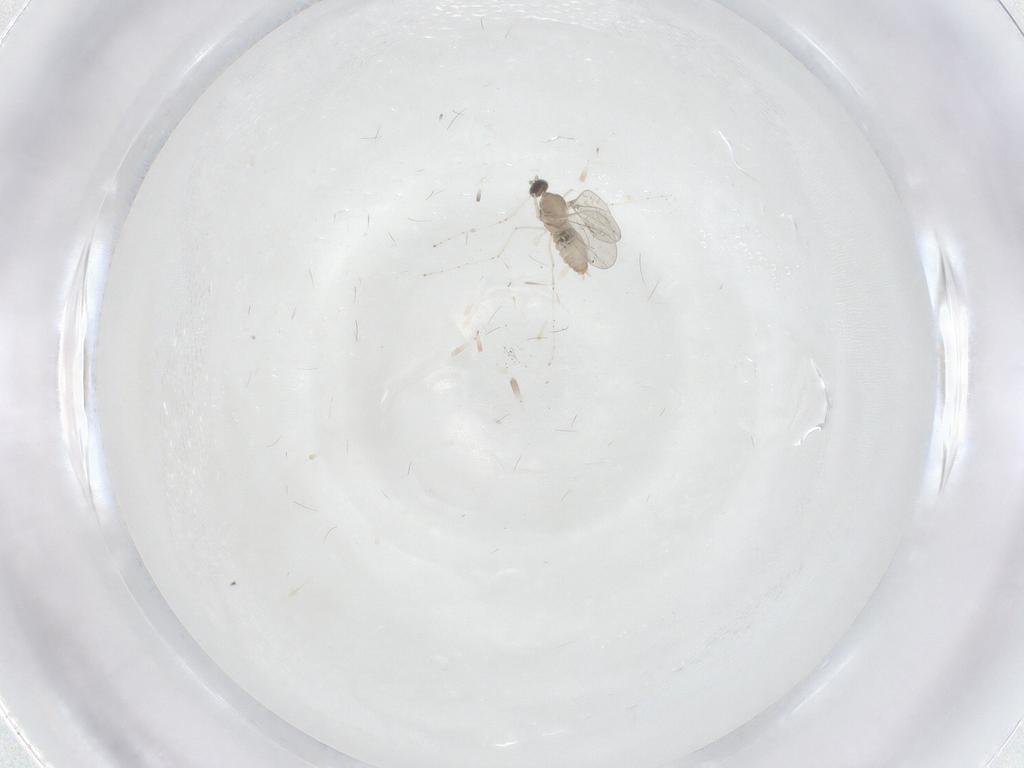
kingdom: Animalia
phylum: Arthropoda
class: Insecta
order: Diptera
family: Cecidomyiidae
